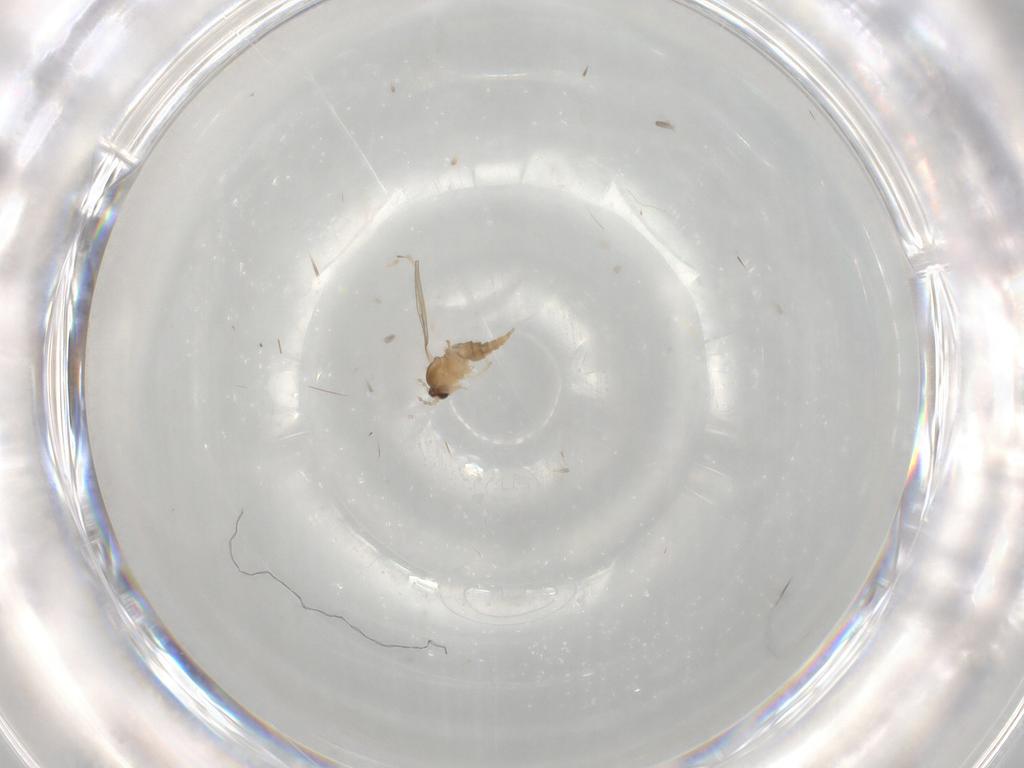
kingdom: Animalia
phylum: Arthropoda
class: Insecta
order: Diptera
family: Cecidomyiidae
